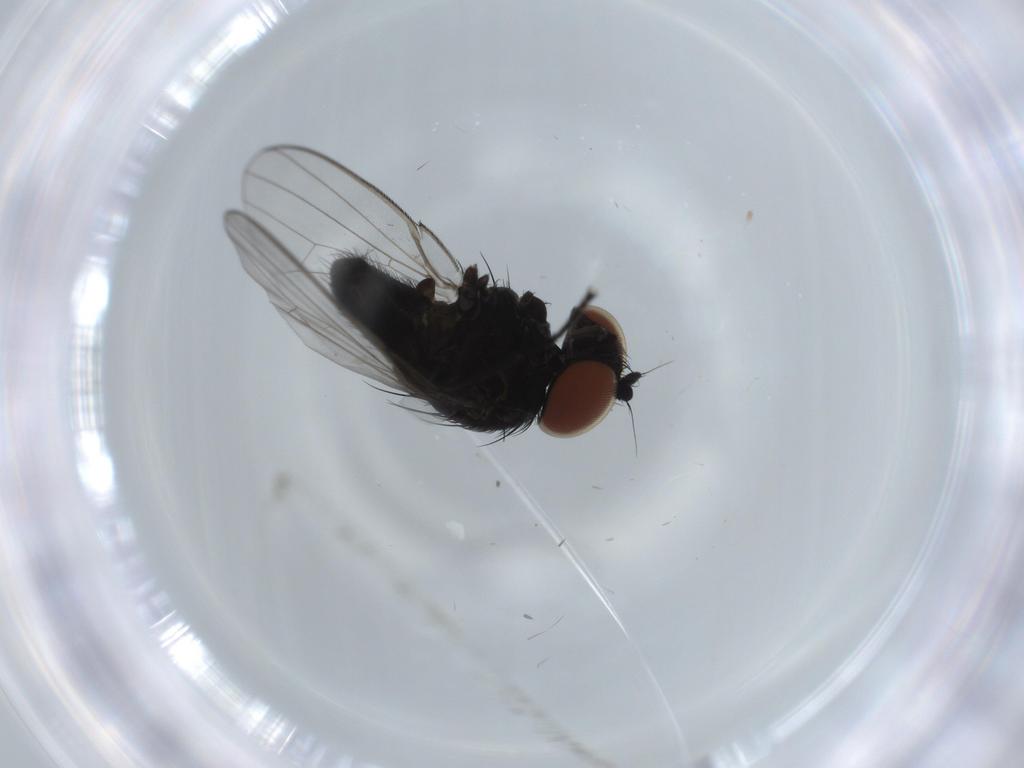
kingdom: Animalia
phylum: Arthropoda
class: Insecta
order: Diptera
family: Milichiidae
